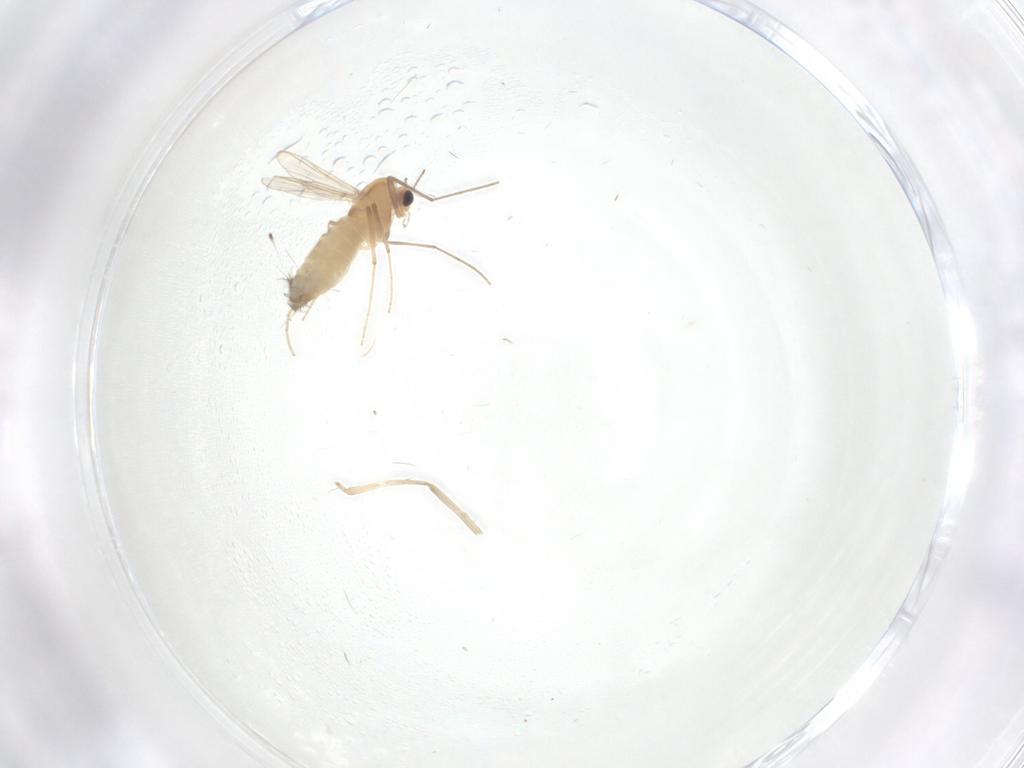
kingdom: Animalia
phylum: Arthropoda
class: Insecta
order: Diptera
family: Chironomidae
